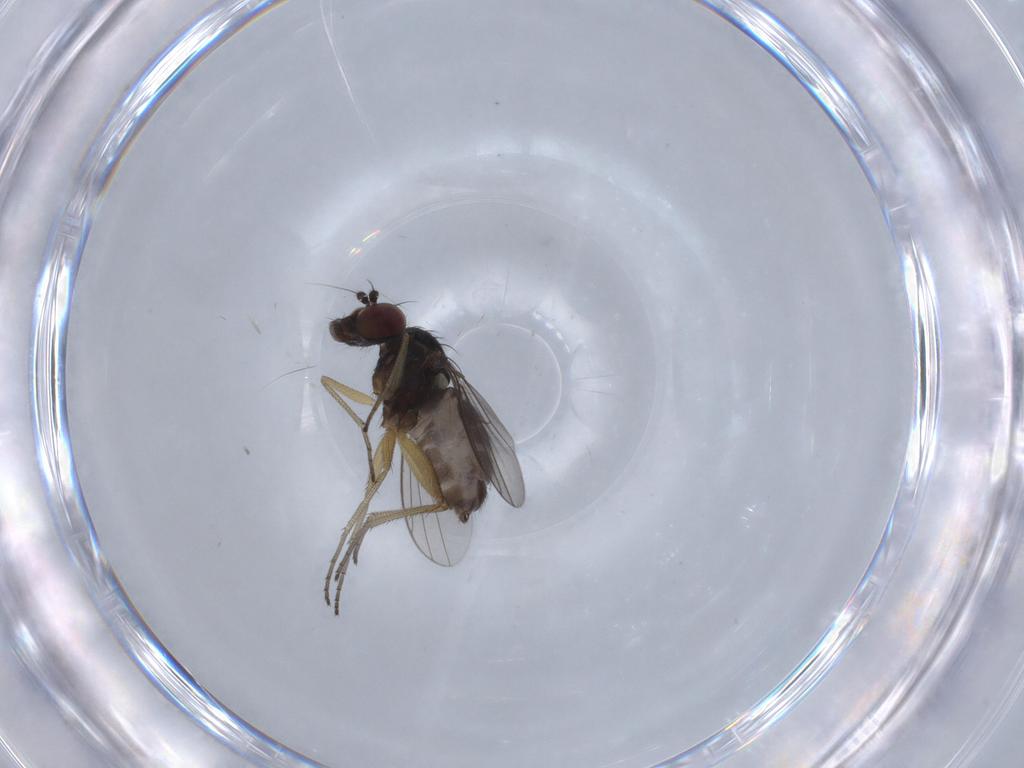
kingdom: Animalia
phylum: Arthropoda
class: Insecta
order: Diptera
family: Dolichopodidae
